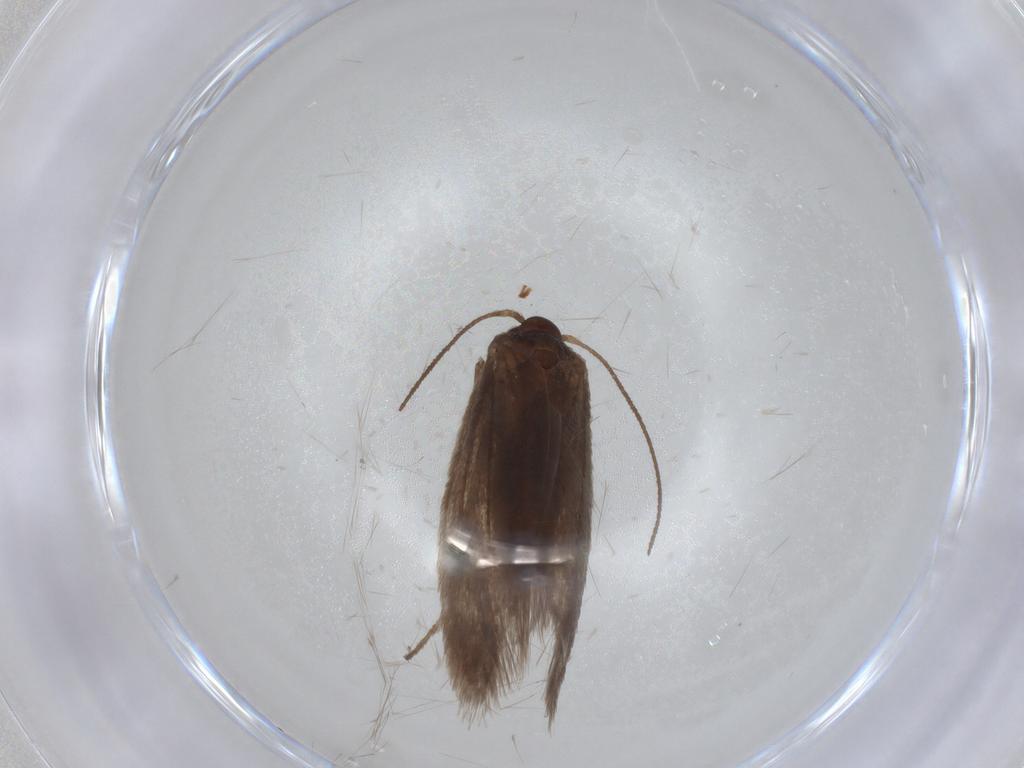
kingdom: Animalia
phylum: Arthropoda
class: Insecta
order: Lepidoptera
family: Limacodidae
